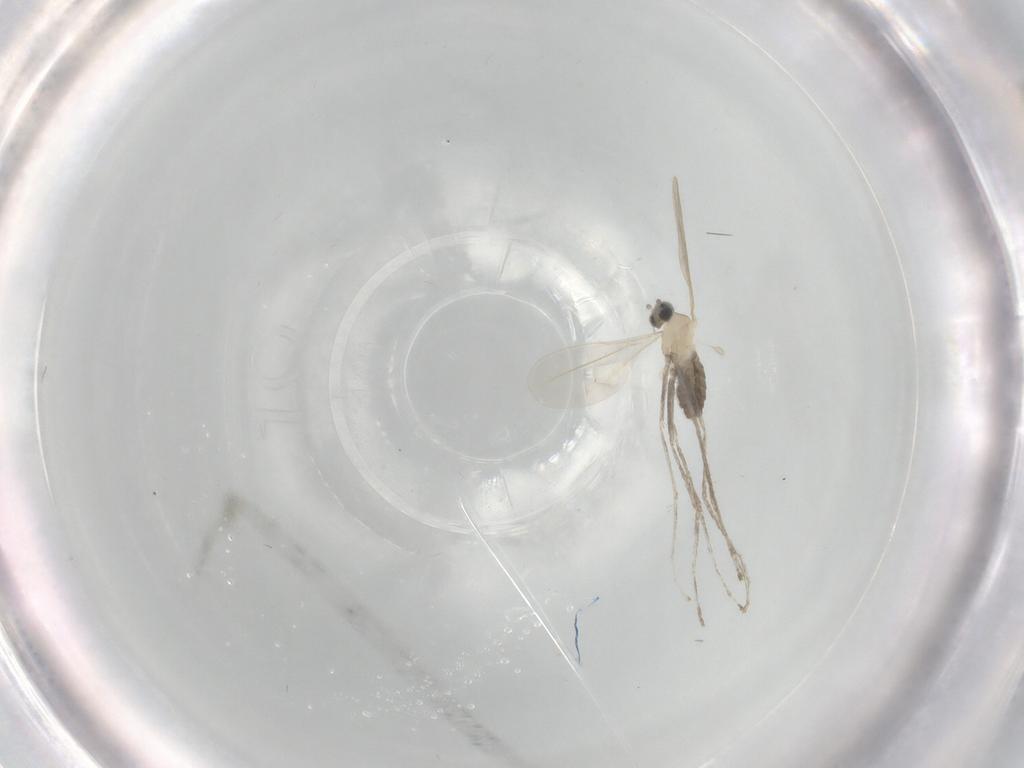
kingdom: Animalia
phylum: Arthropoda
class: Insecta
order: Diptera
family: Cecidomyiidae
